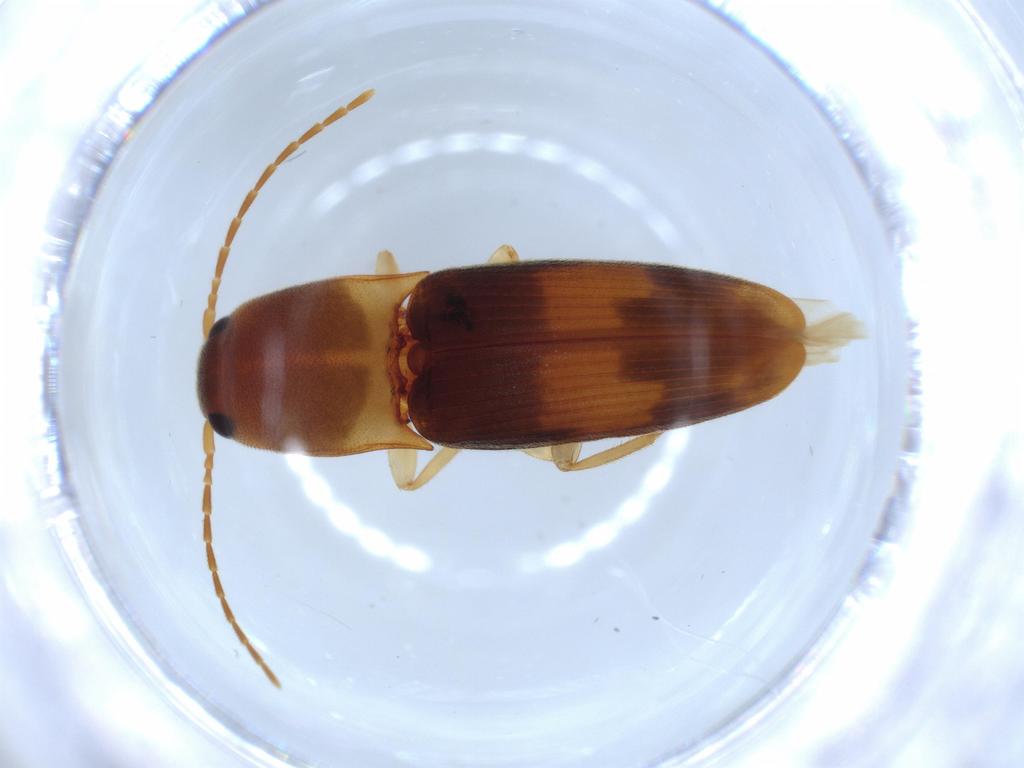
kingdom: Animalia
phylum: Arthropoda
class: Insecta
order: Coleoptera
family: Elateridae
